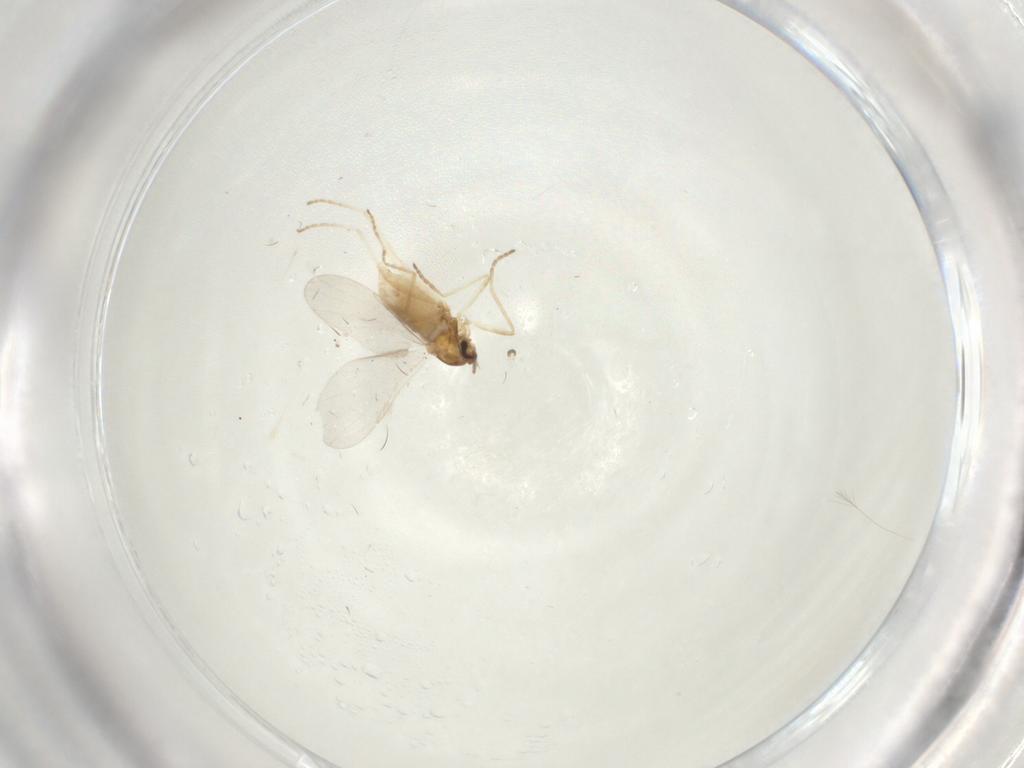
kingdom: Animalia
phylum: Arthropoda
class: Insecta
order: Diptera
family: Cecidomyiidae
